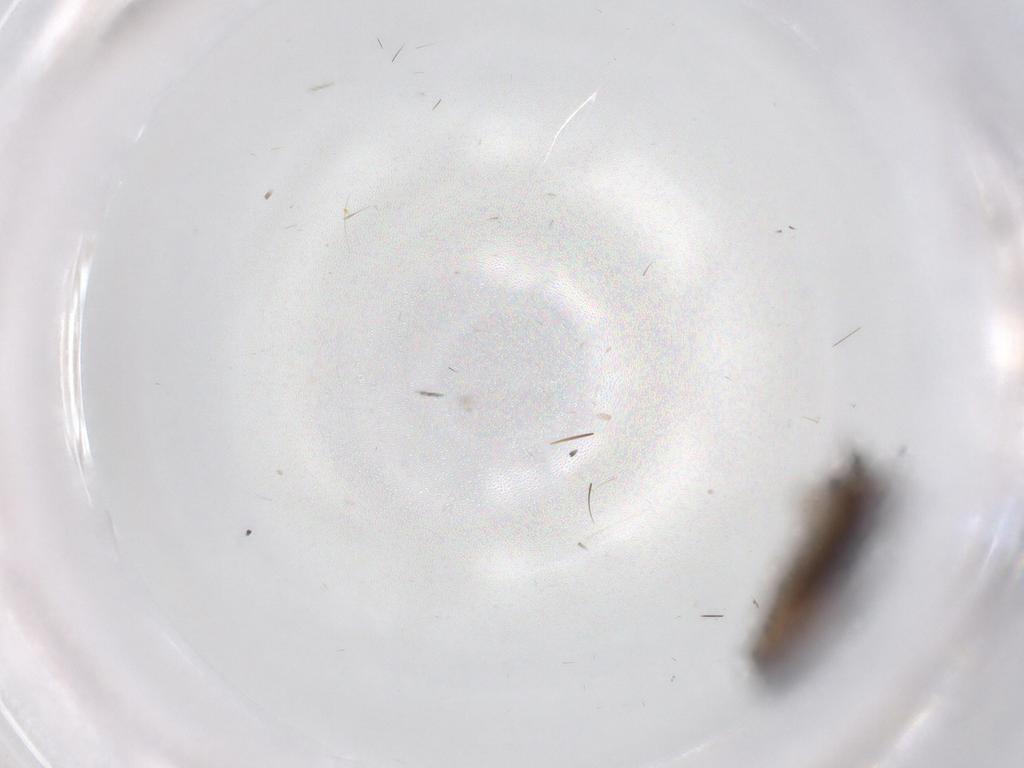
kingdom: Animalia
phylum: Arthropoda
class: Insecta
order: Diptera
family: Phoridae
